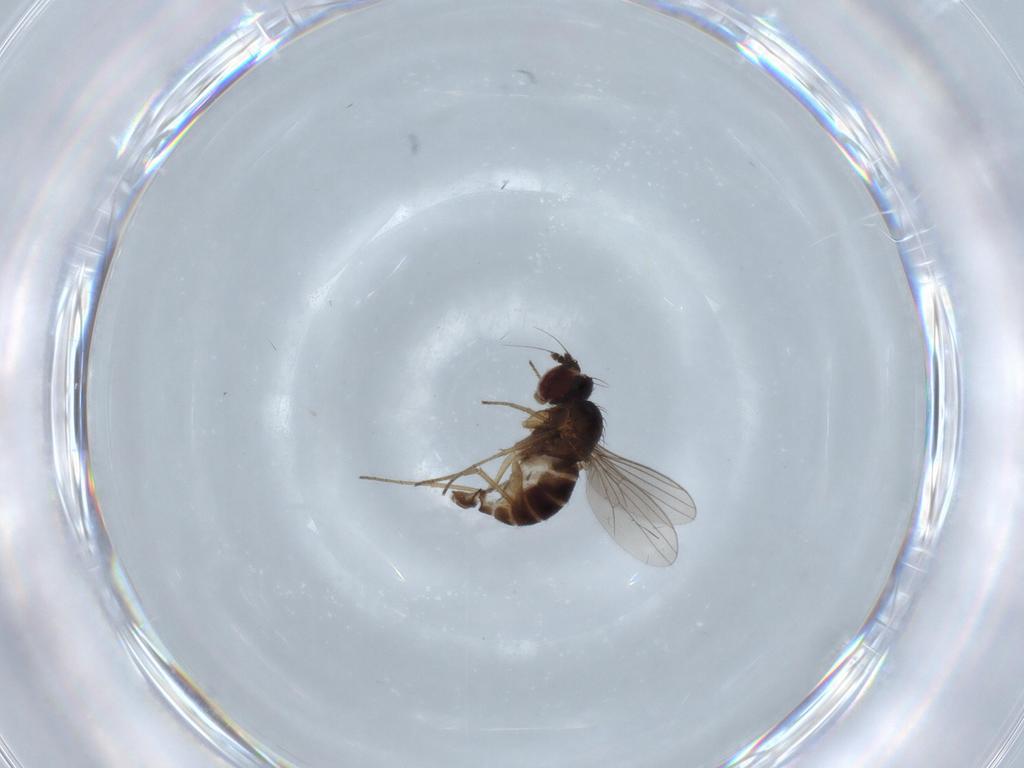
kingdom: Animalia
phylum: Arthropoda
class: Insecta
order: Diptera
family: Dolichopodidae
